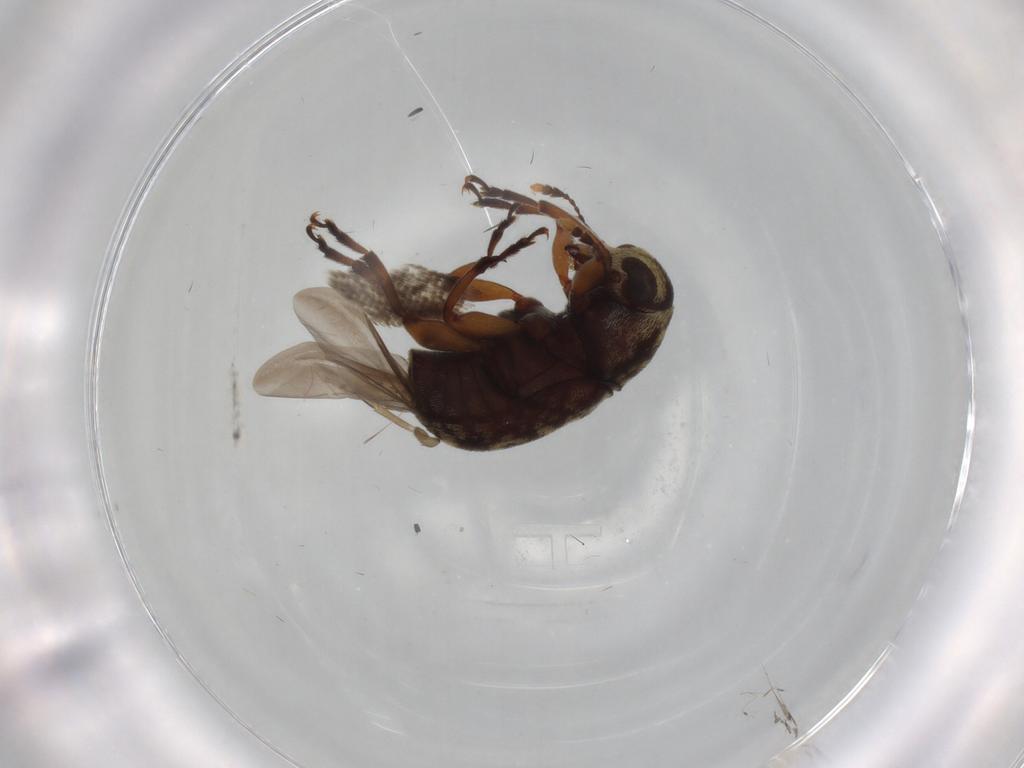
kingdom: Animalia
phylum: Arthropoda
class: Insecta
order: Coleoptera
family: Anthribidae
